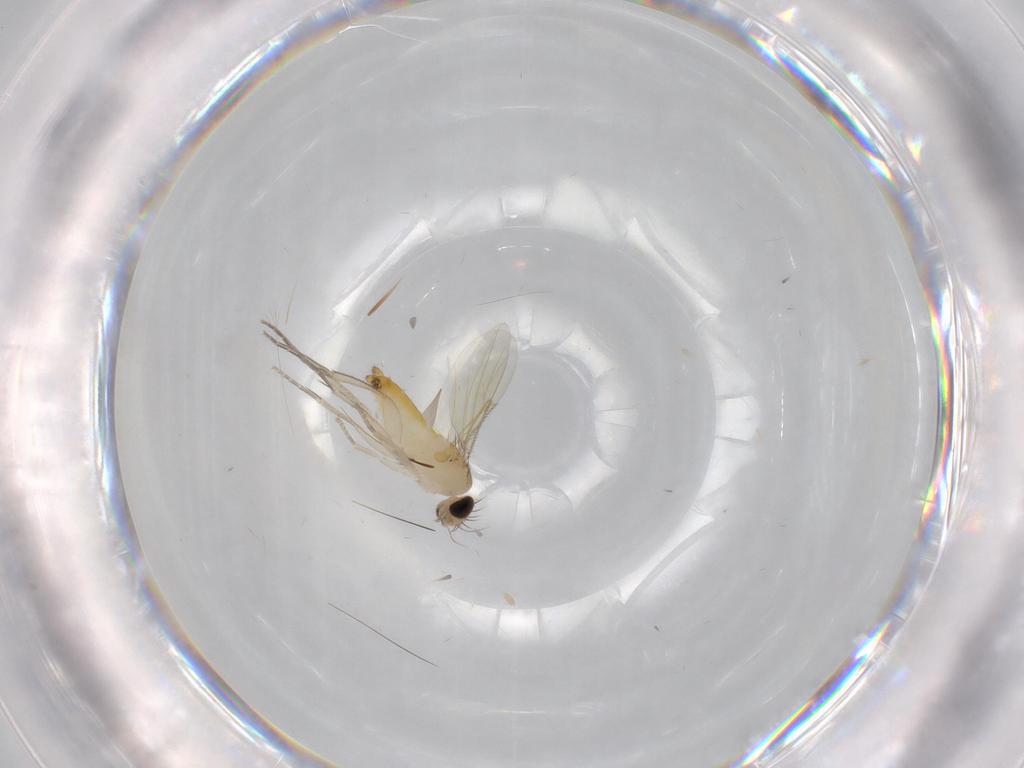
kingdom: Animalia
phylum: Arthropoda
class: Insecta
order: Diptera
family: Phoridae
